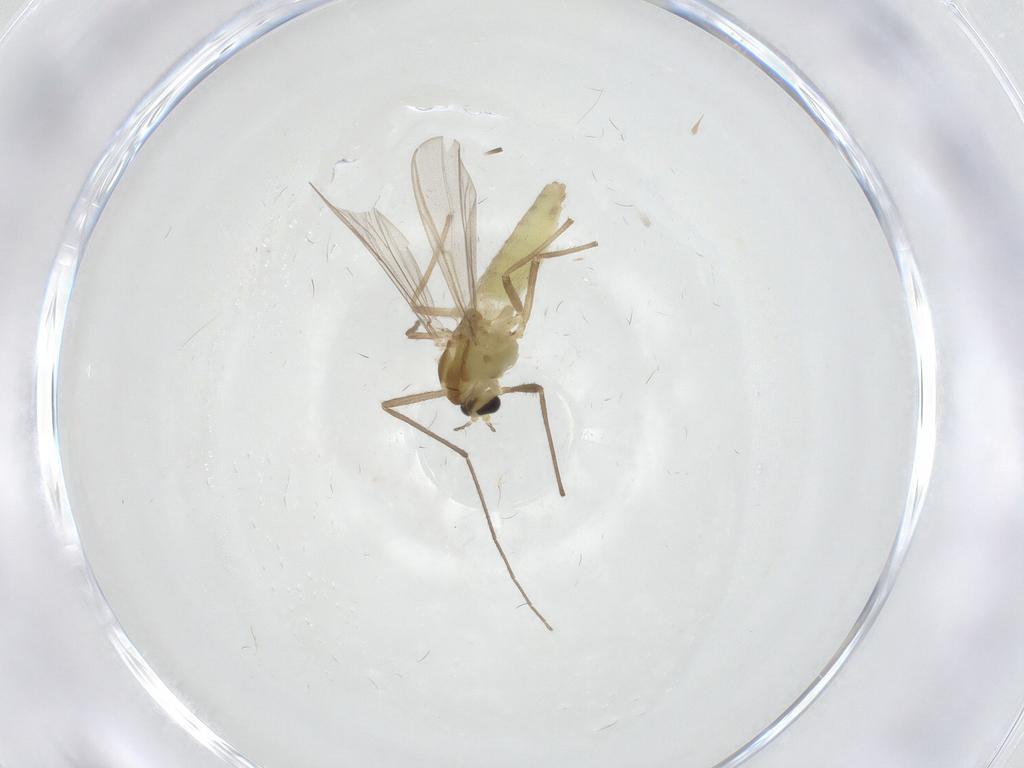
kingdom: Animalia
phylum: Arthropoda
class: Insecta
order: Diptera
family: Chironomidae
